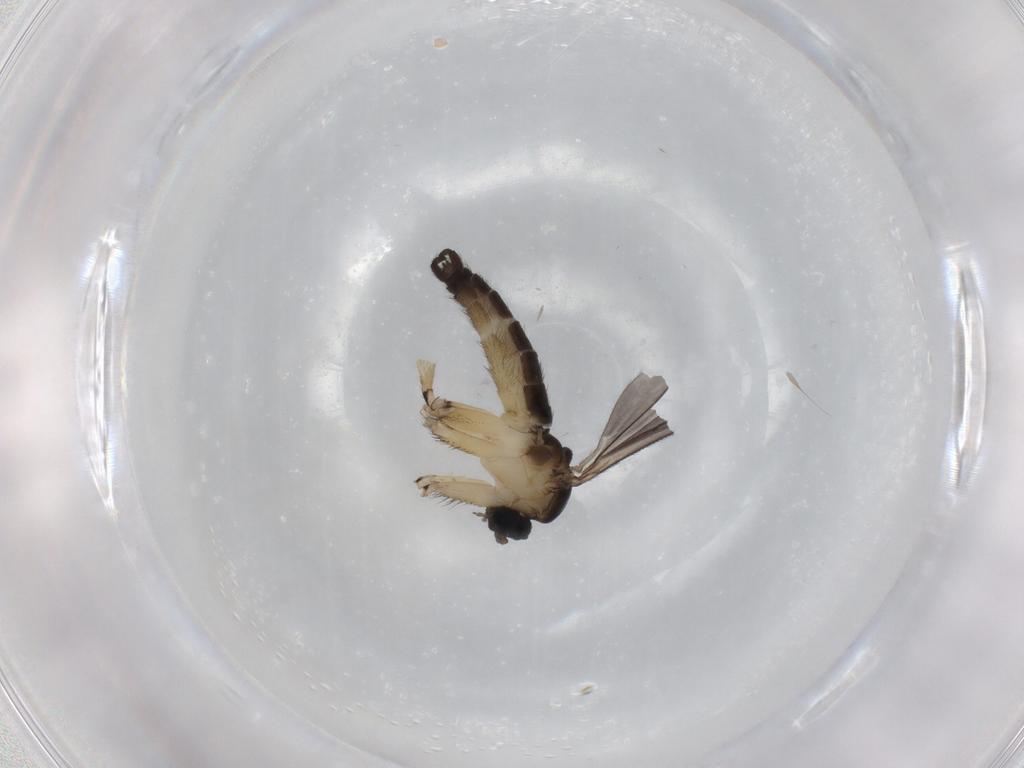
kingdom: Animalia
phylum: Arthropoda
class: Insecta
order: Diptera
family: Sciaridae
